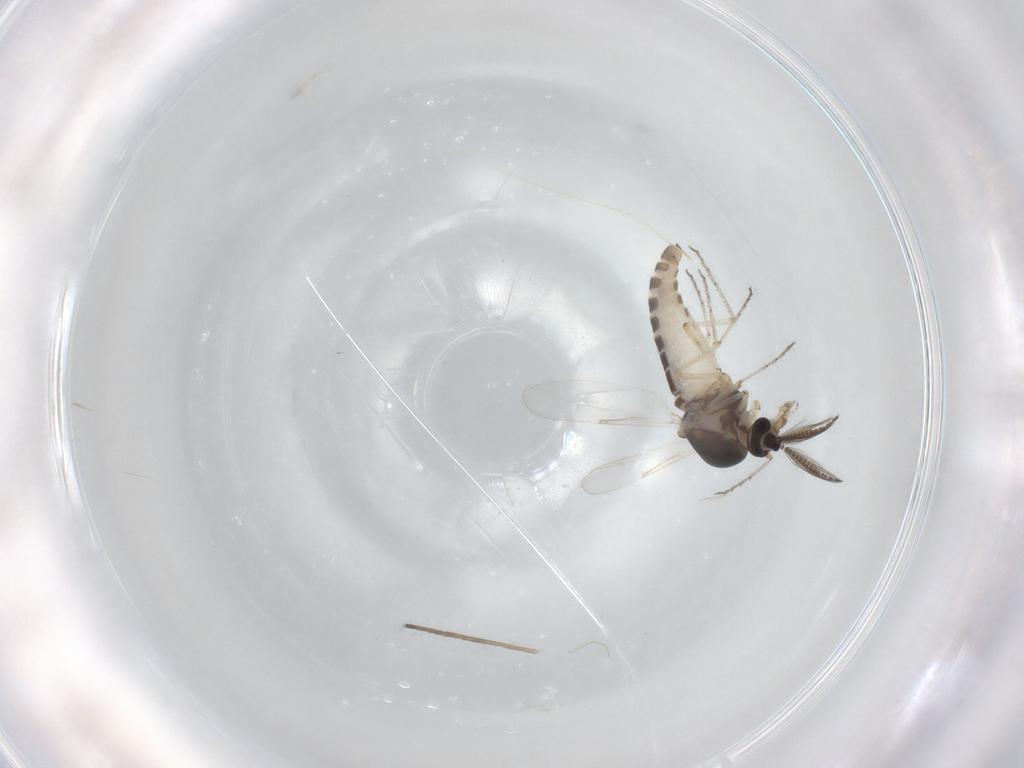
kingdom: Animalia
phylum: Arthropoda
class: Insecta
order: Diptera
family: Ceratopogonidae
